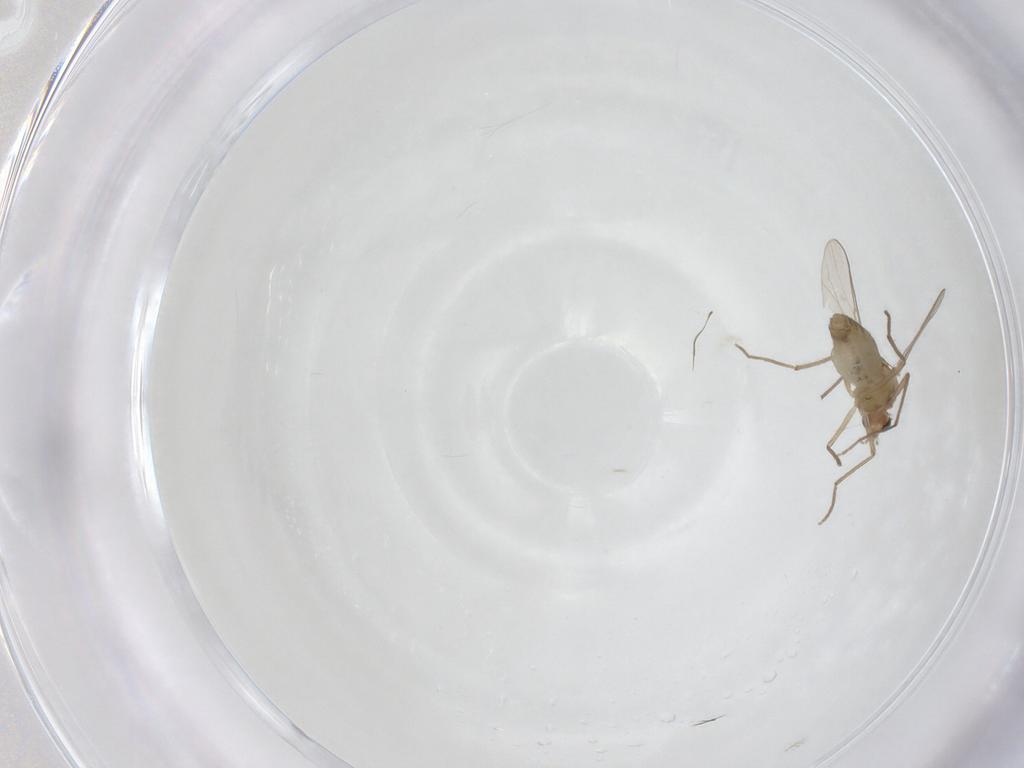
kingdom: Animalia
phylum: Arthropoda
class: Insecta
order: Diptera
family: Chironomidae
